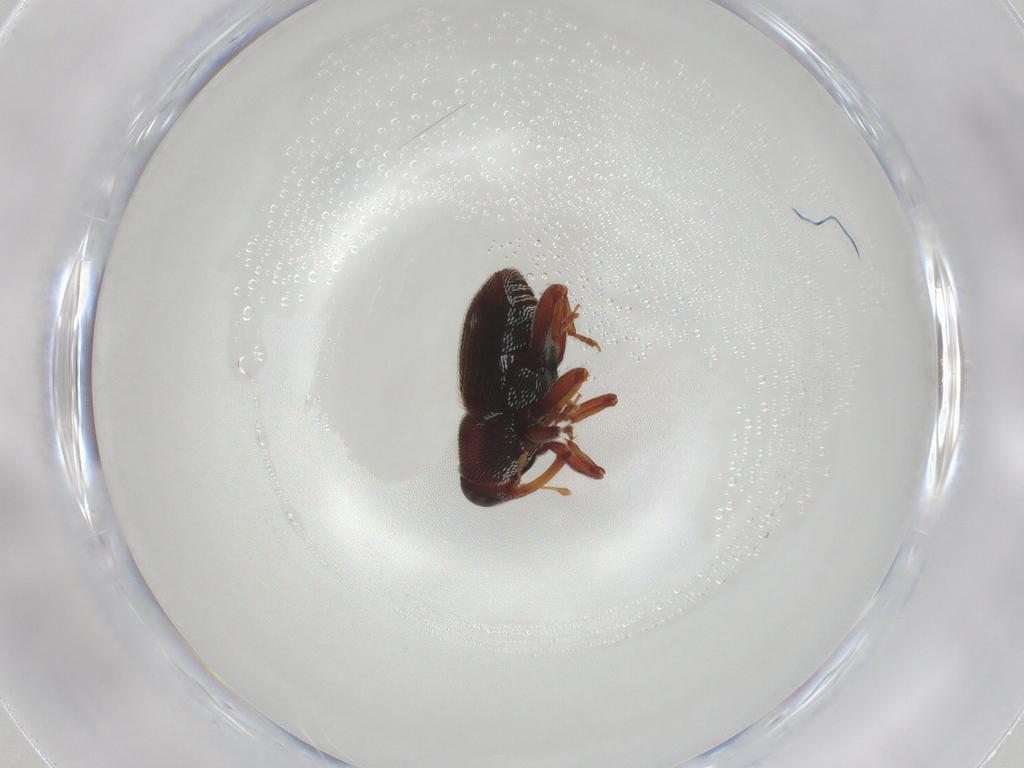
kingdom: Animalia
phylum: Arthropoda
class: Insecta
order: Coleoptera
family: Curculionidae
